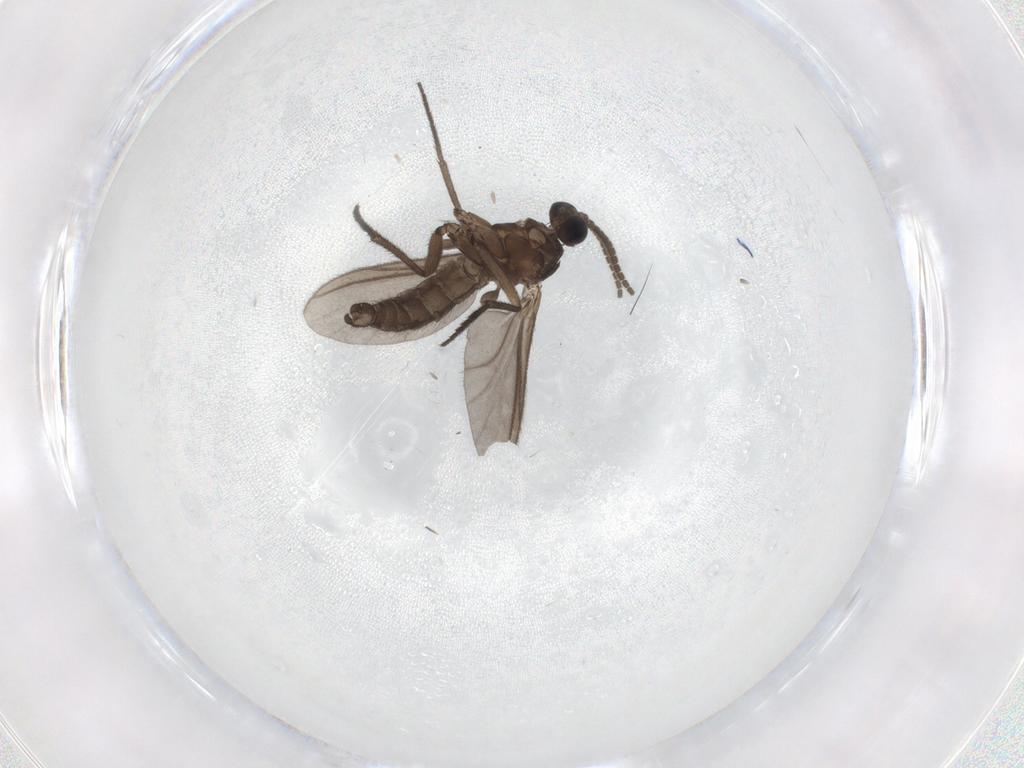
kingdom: Animalia
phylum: Arthropoda
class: Insecta
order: Diptera
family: Sciaridae
